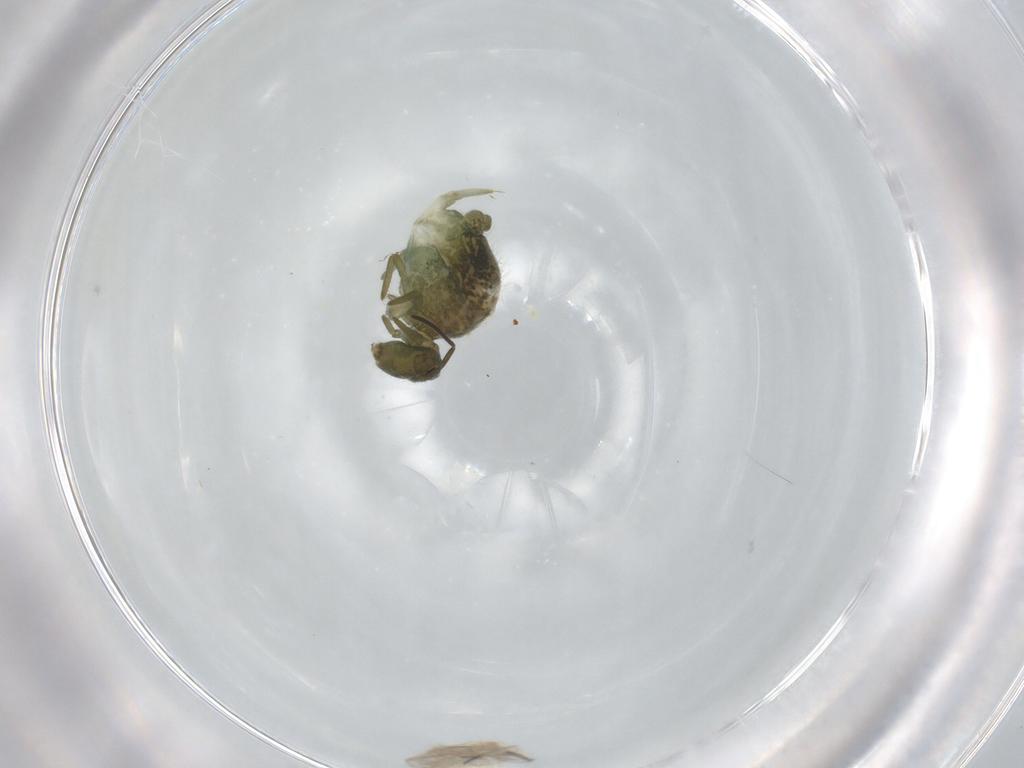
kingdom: Animalia
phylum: Arthropoda
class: Collembola
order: Symphypleona
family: Sminthuridae
